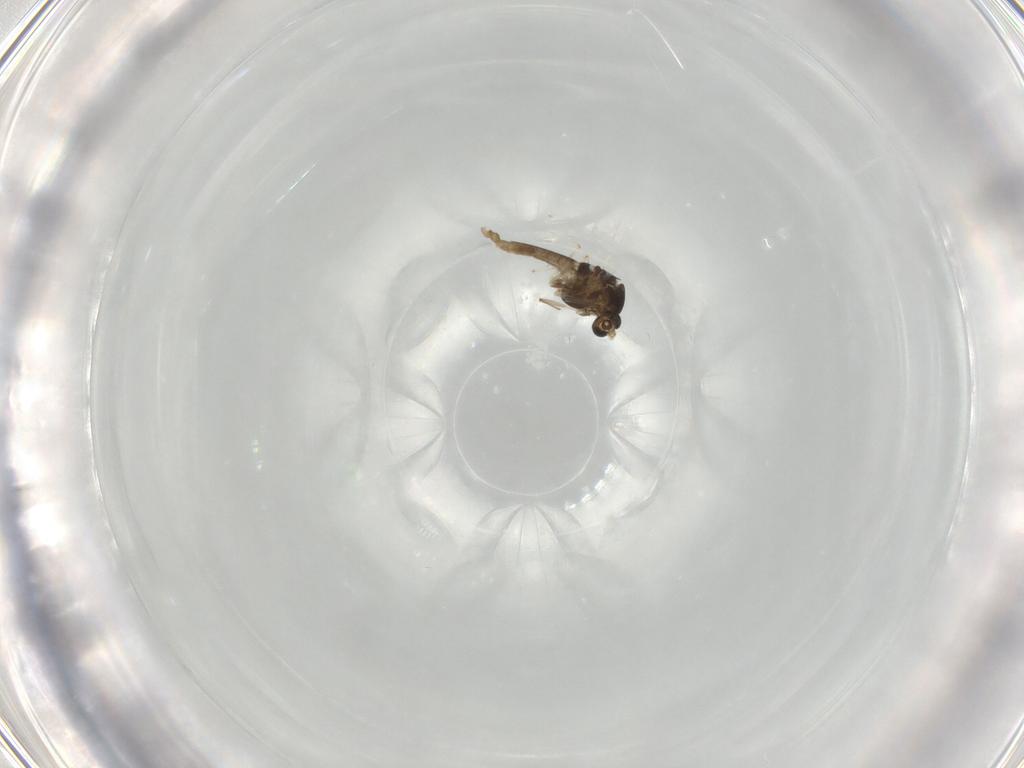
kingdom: Animalia
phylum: Arthropoda
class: Insecta
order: Diptera
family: Chironomidae
